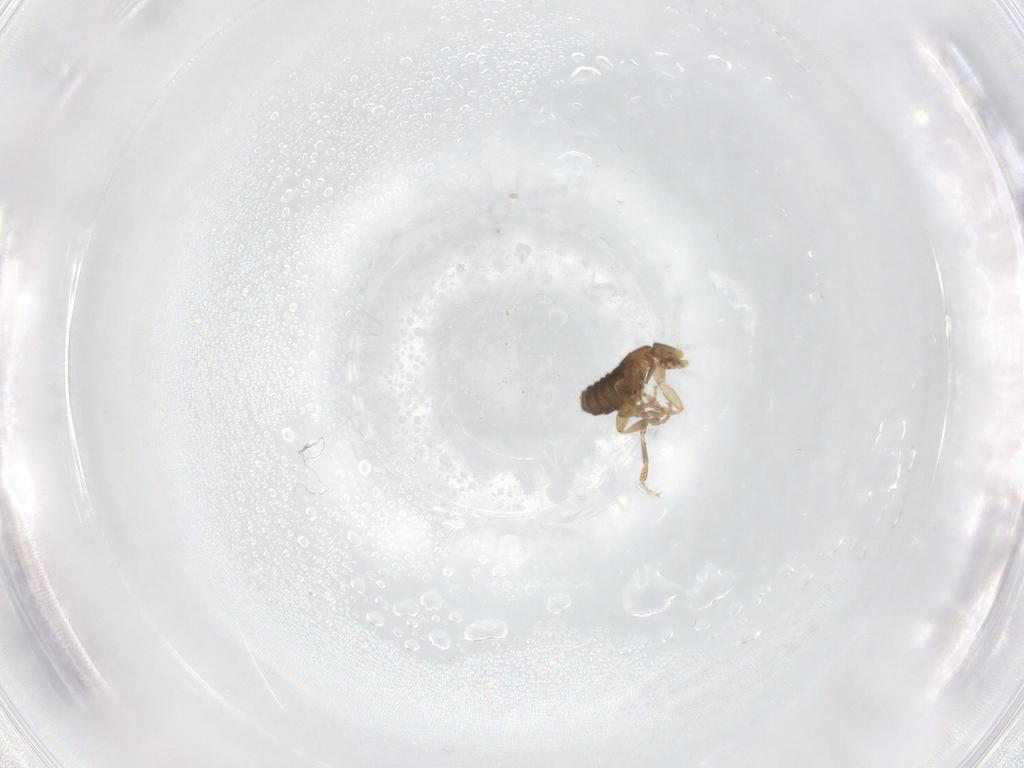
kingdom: Animalia
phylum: Arthropoda
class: Insecta
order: Diptera
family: Phoridae
